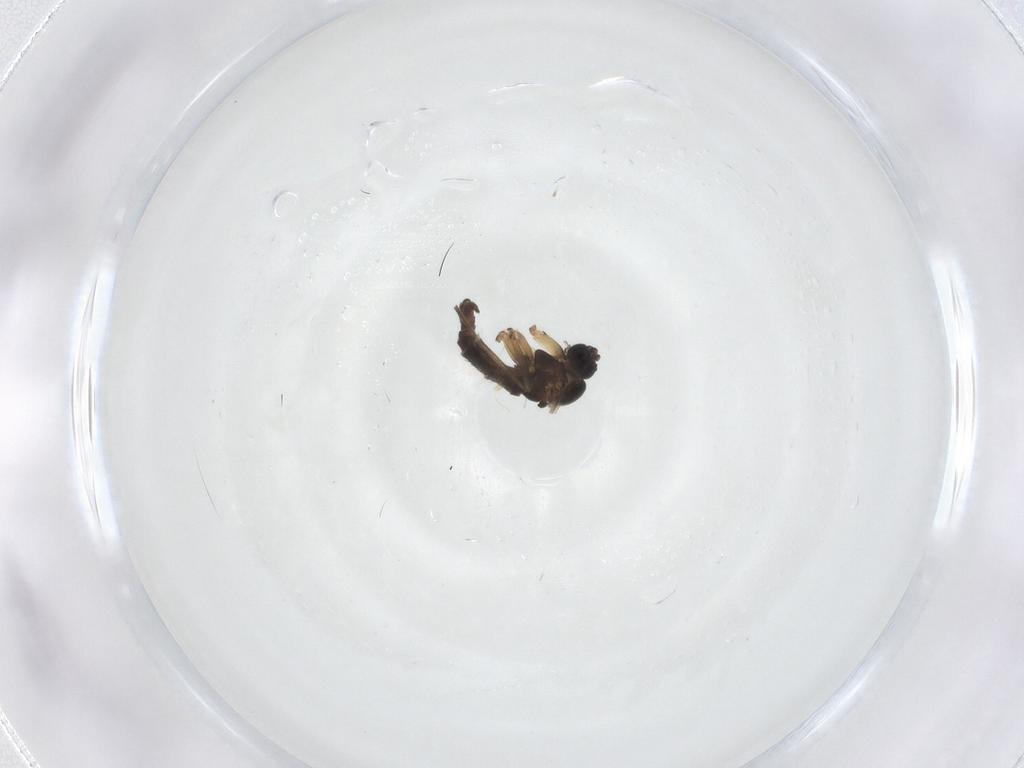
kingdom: Animalia
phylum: Arthropoda
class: Insecta
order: Diptera
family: Sciaridae
